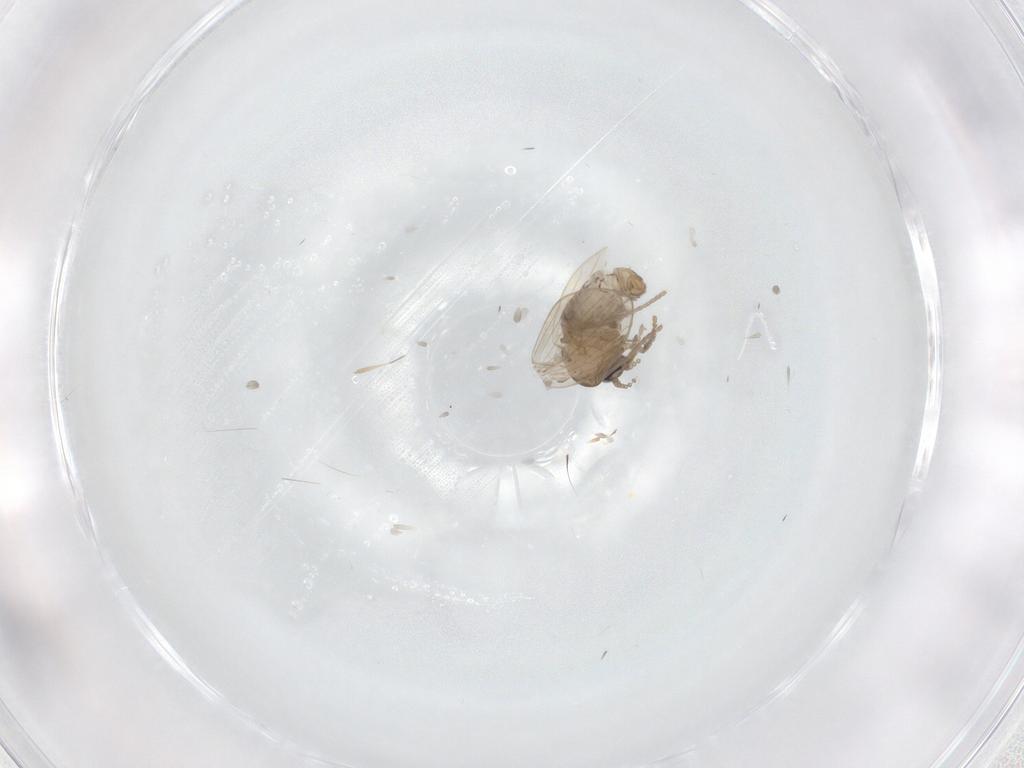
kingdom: Animalia
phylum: Arthropoda
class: Insecta
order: Diptera
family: Psychodidae
